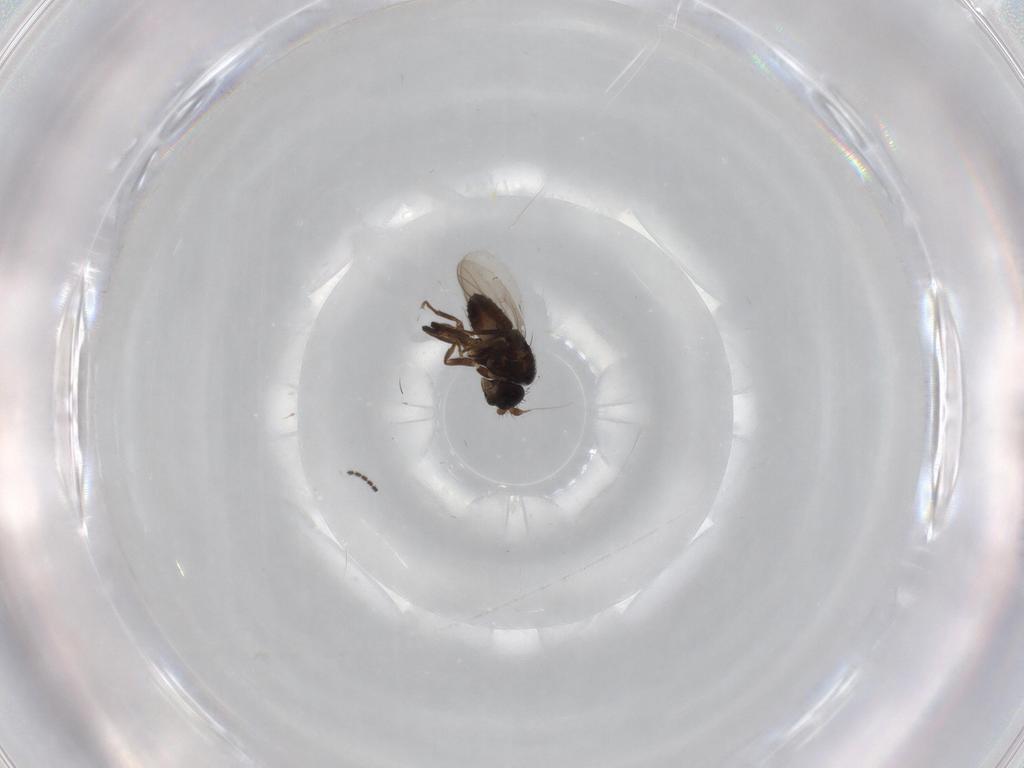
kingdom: Animalia
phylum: Arthropoda
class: Insecta
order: Diptera
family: Sphaeroceridae
